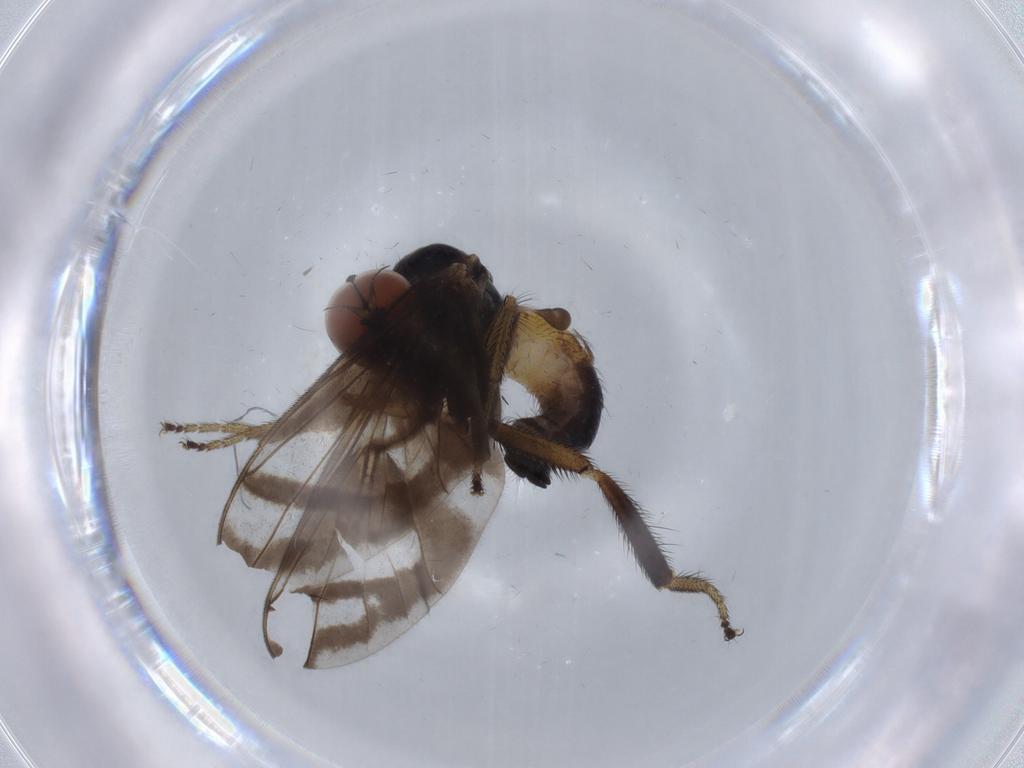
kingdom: Animalia
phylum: Arthropoda
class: Insecta
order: Diptera
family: Empididae
